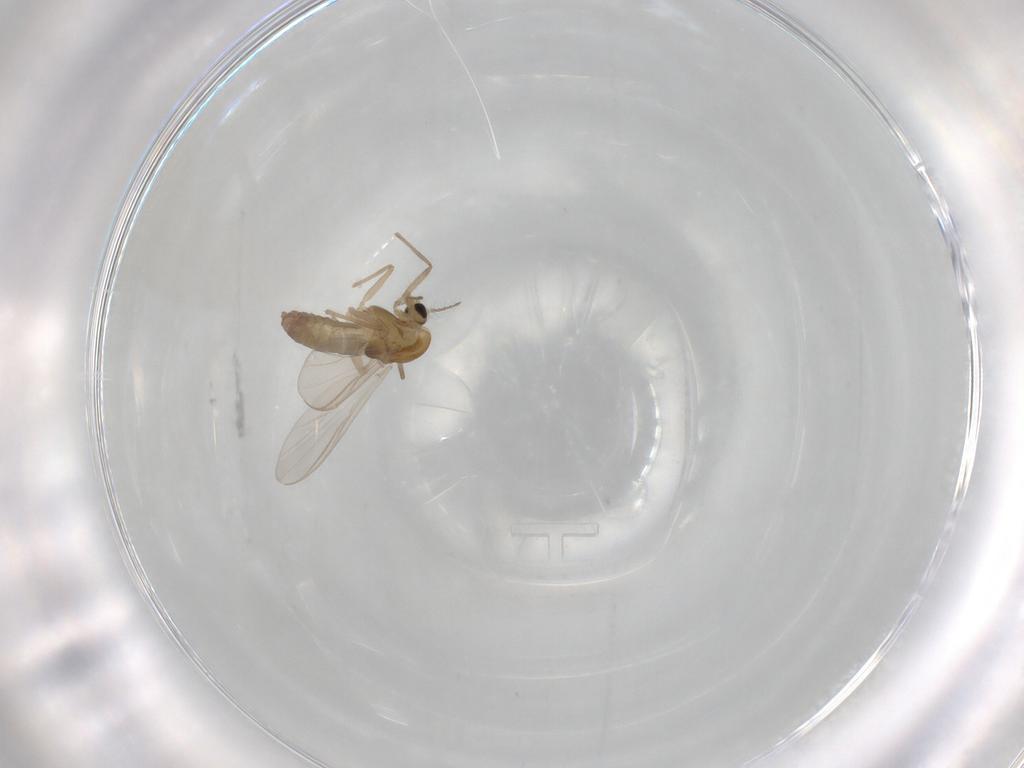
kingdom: Animalia
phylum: Arthropoda
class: Insecta
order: Diptera
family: Chironomidae
